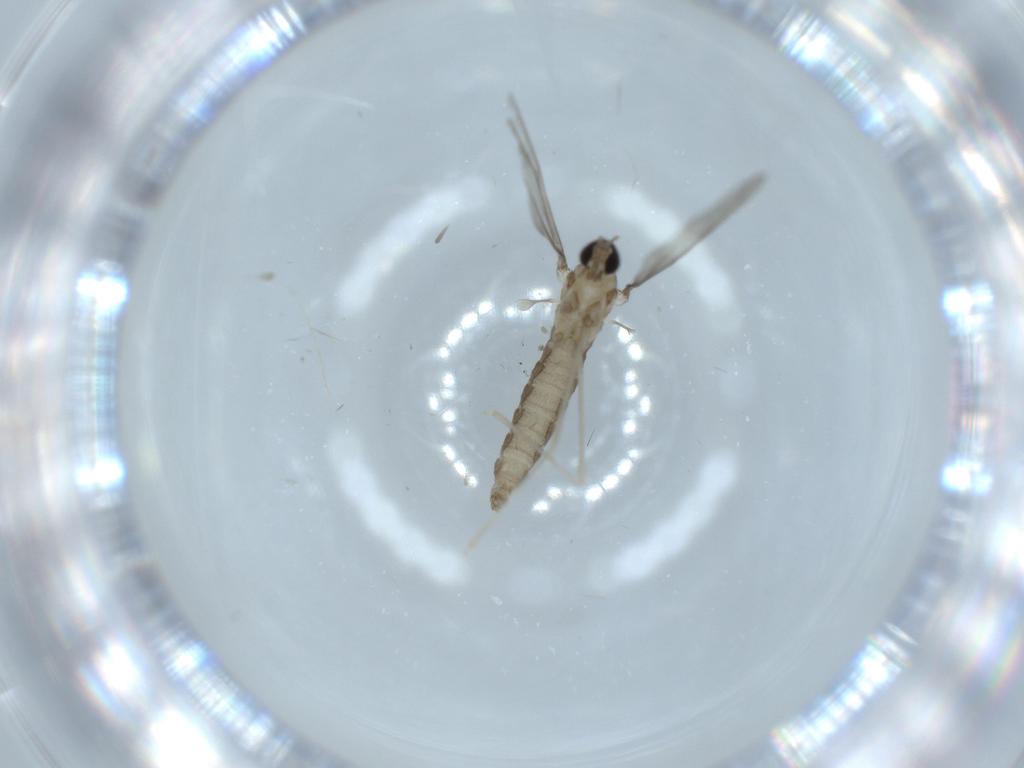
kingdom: Animalia
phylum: Arthropoda
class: Insecta
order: Diptera
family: Cecidomyiidae
